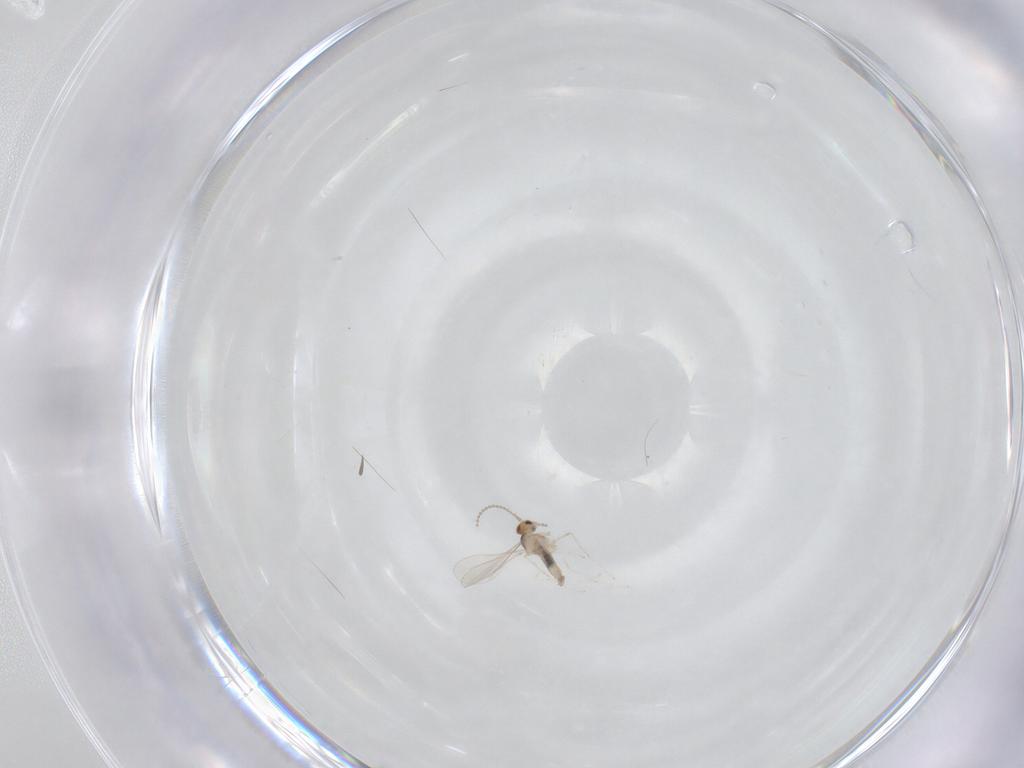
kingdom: Animalia
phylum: Arthropoda
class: Insecta
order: Diptera
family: Cecidomyiidae
